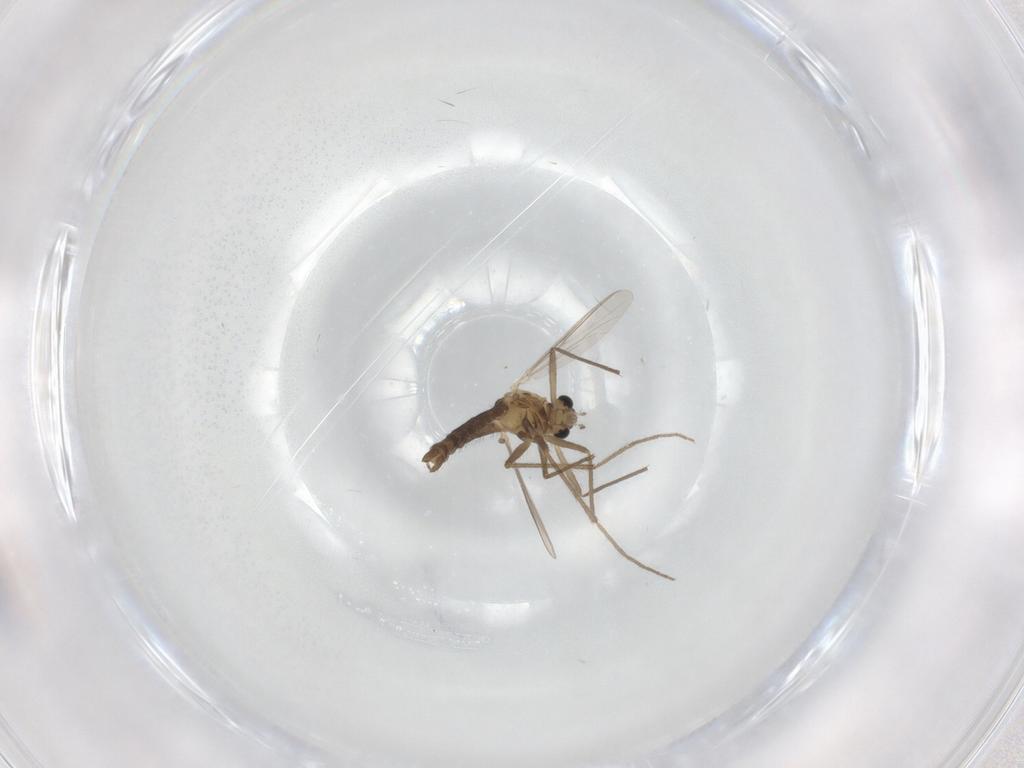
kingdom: Animalia
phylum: Arthropoda
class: Insecta
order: Diptera
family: Chironomidae
